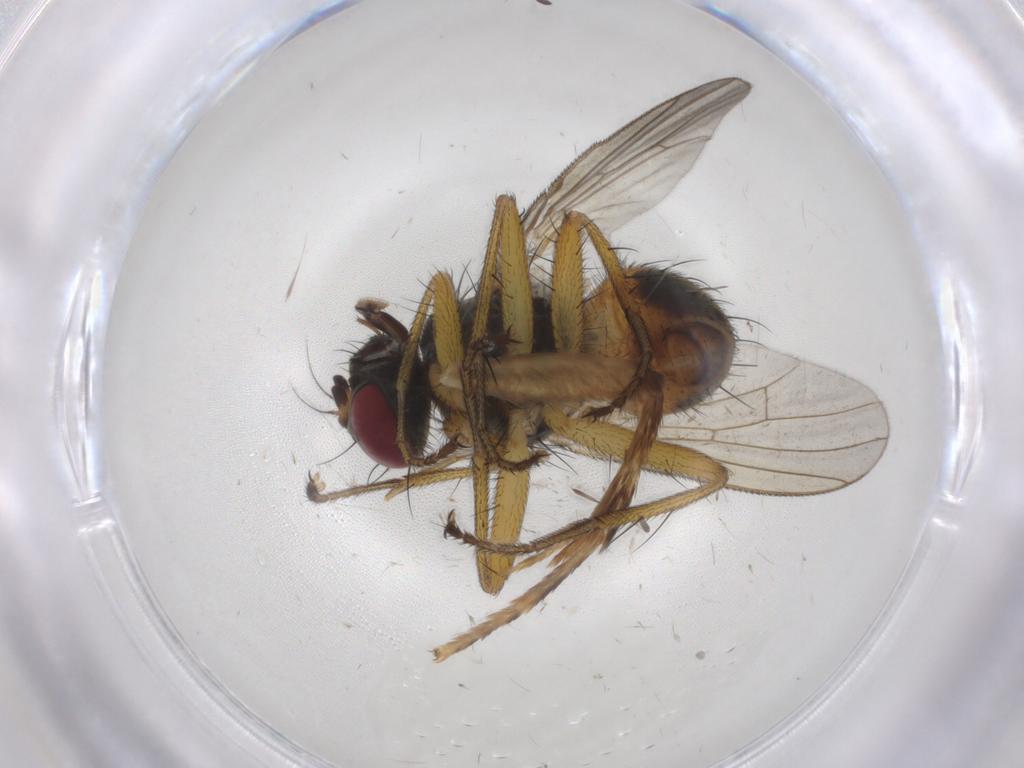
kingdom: Animalia
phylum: Arthropoda
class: Insecta
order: Diptera
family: Muscidae
